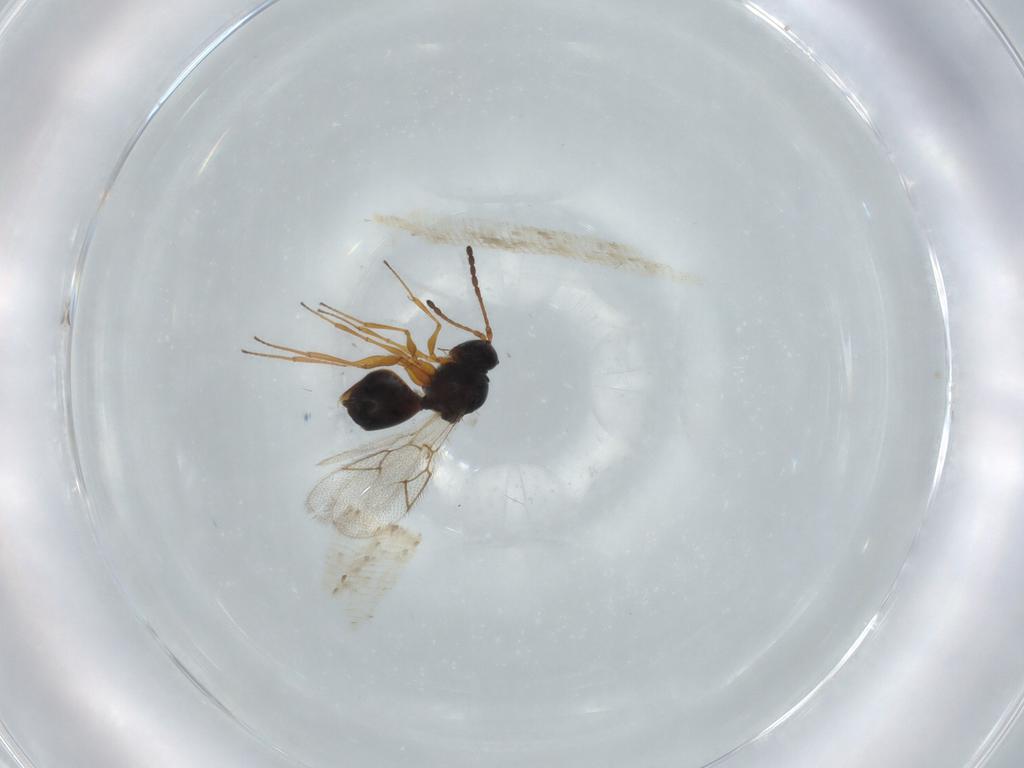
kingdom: Animalia
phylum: Arthropoda
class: Insecta
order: Hymenoptera
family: Figitidae
